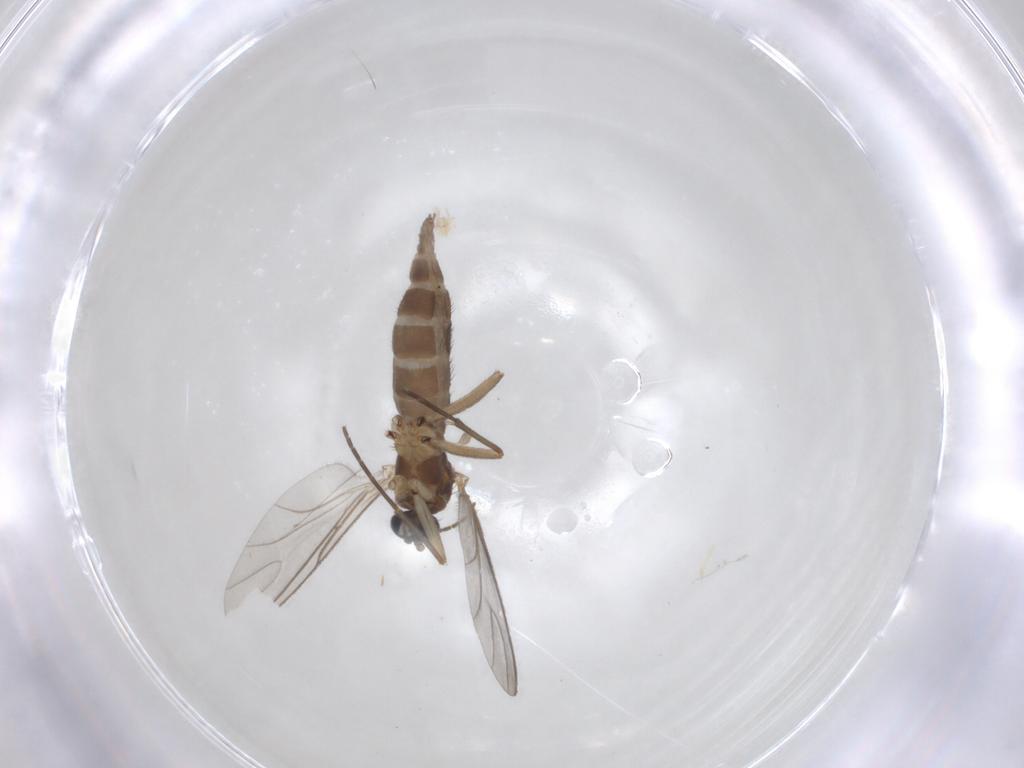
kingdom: Animalia
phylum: Arthropoda
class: Insecta
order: Diptera
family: Sciaridae
